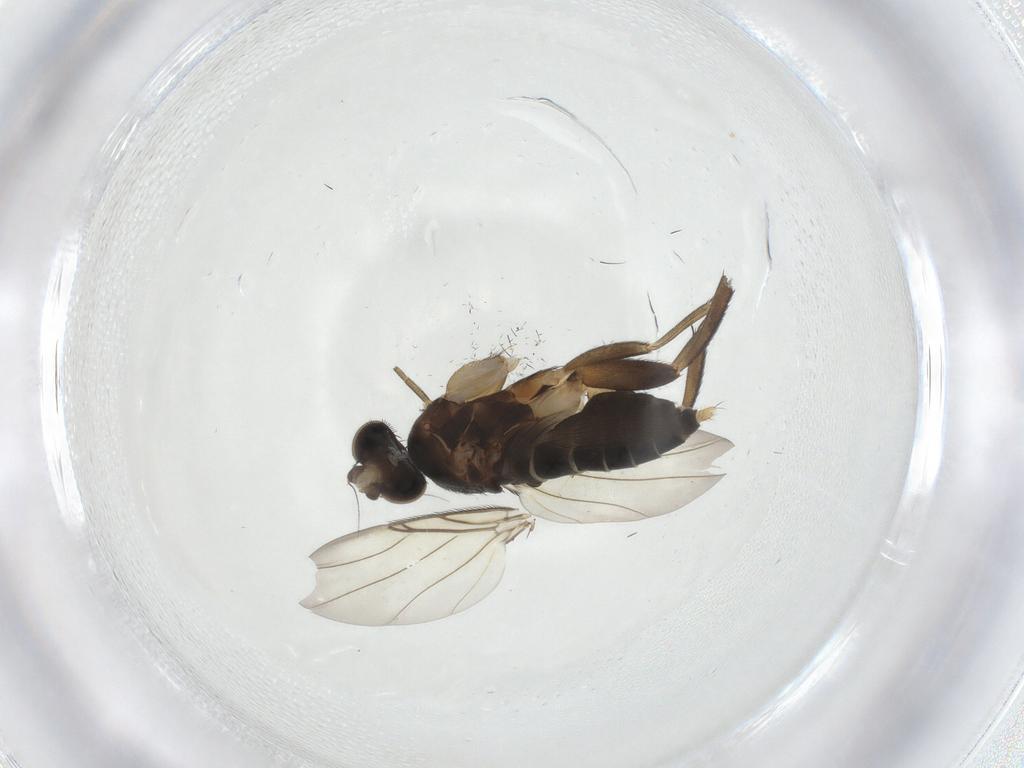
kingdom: Animalia
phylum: Arthropoda
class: Insecta
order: Diptera
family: Phoridae
